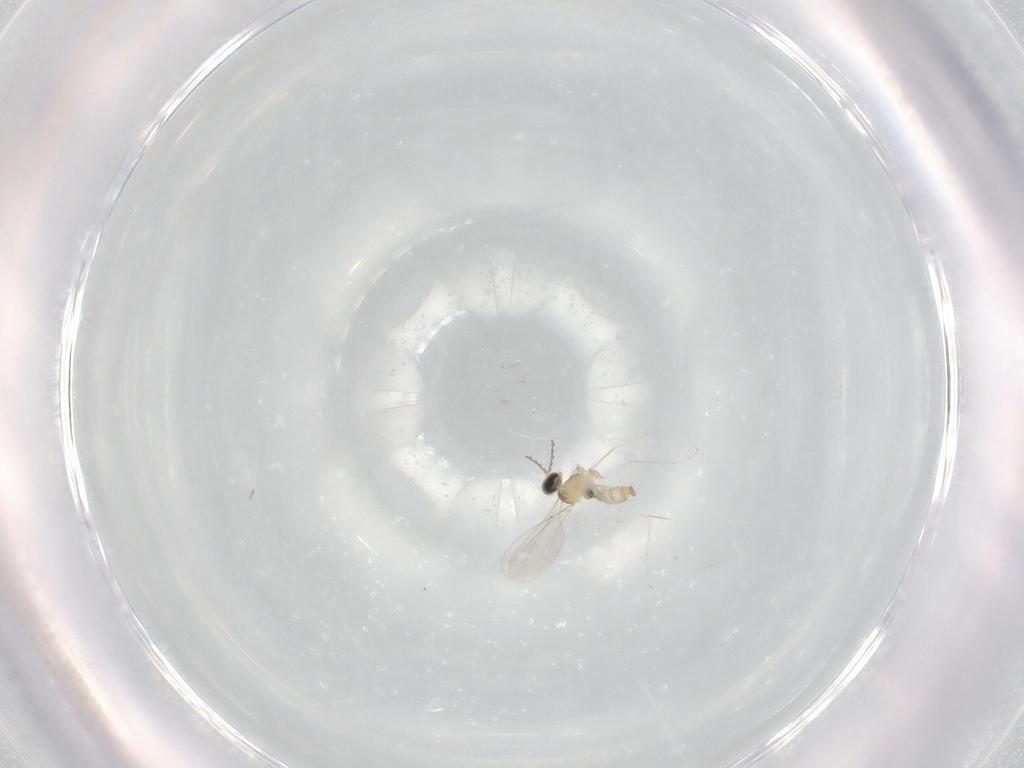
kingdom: Animalia
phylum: Arthropoda
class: Insecta
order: Diptera
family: Cecidomyiidae
